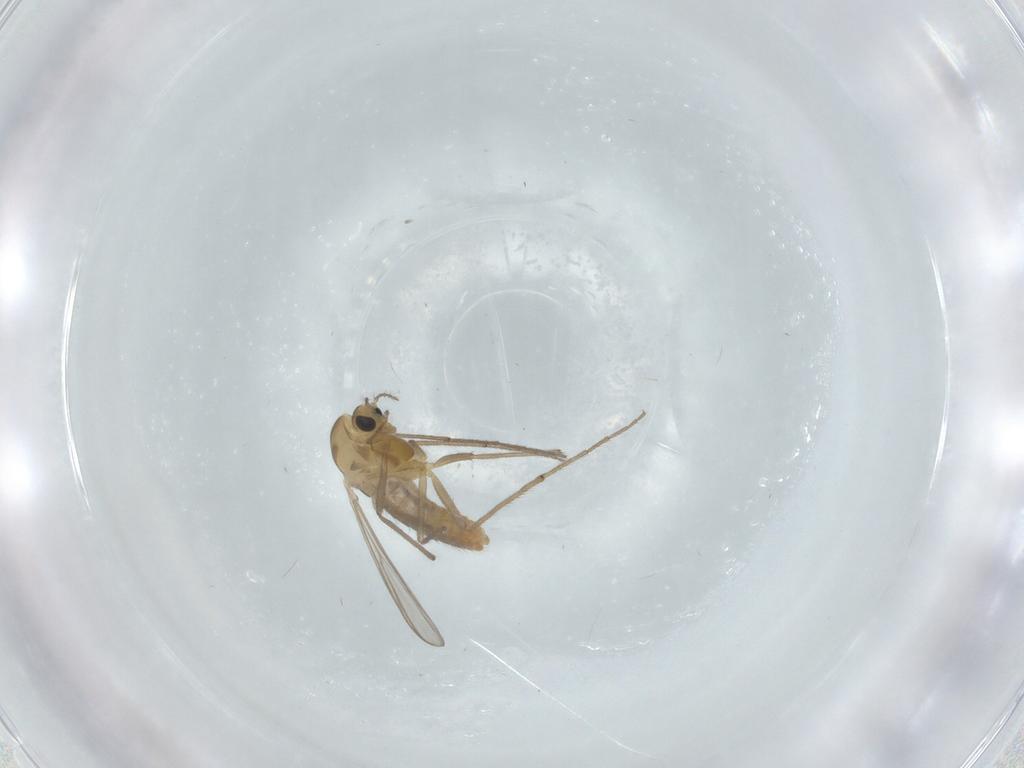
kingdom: Animalia
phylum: Arthropoda
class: Insecta
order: Diptera
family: Chironomidae
